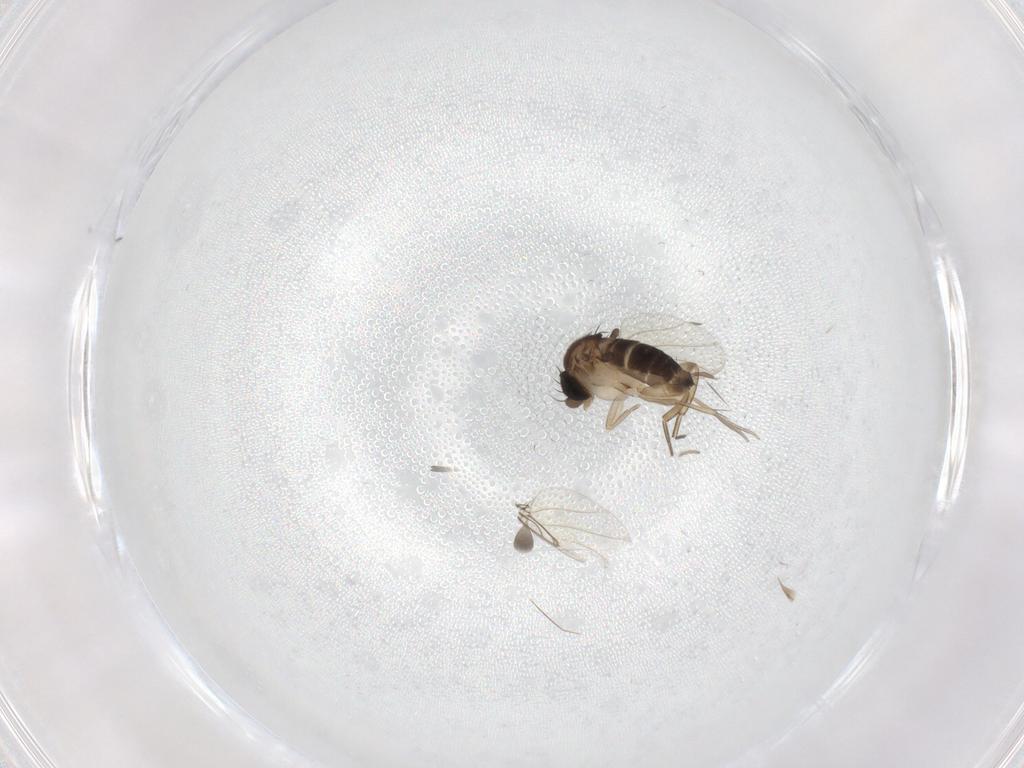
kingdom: Animalia
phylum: Arthropoda
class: Insecta
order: Diptera
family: Phoridae
